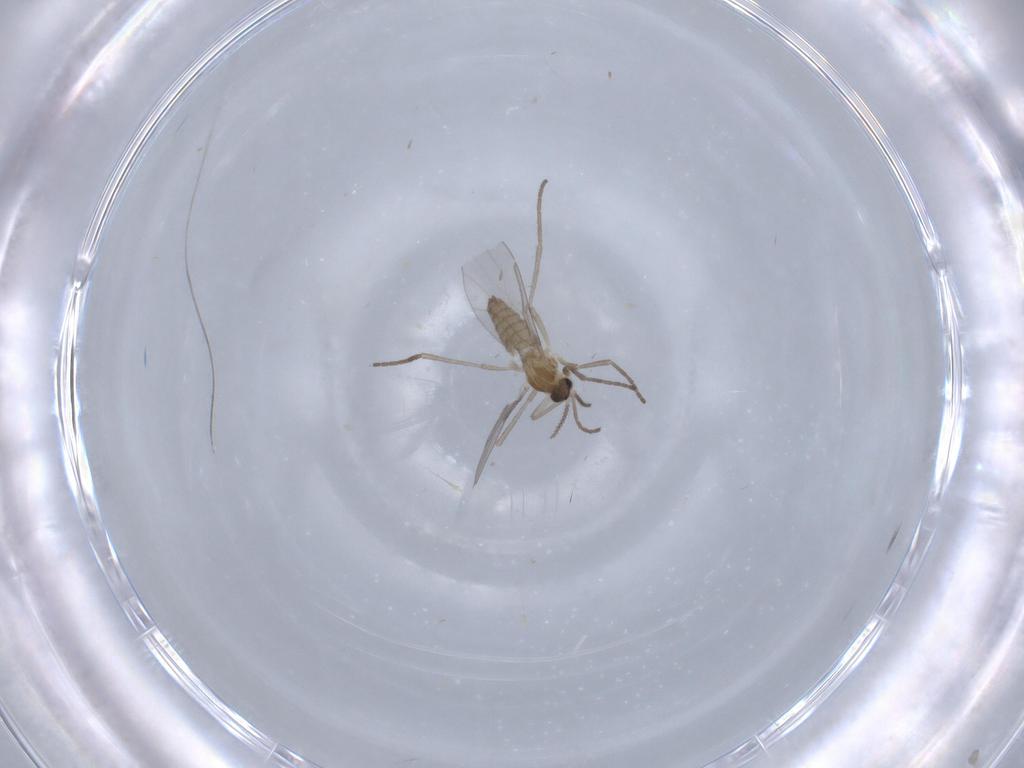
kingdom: Animalia
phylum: Arthropoda
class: Insecta
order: Diptera
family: Cecidomyiidae
